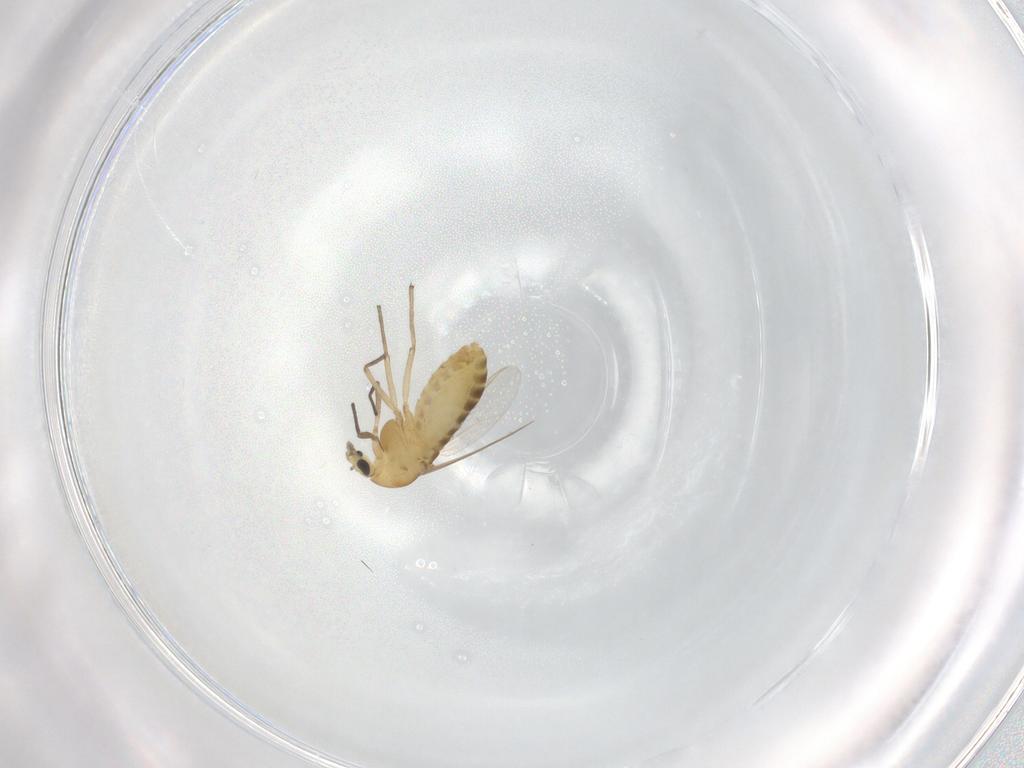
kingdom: Animalia
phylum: Arthropoda
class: Insecta
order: Diptera
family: Chironomidae
